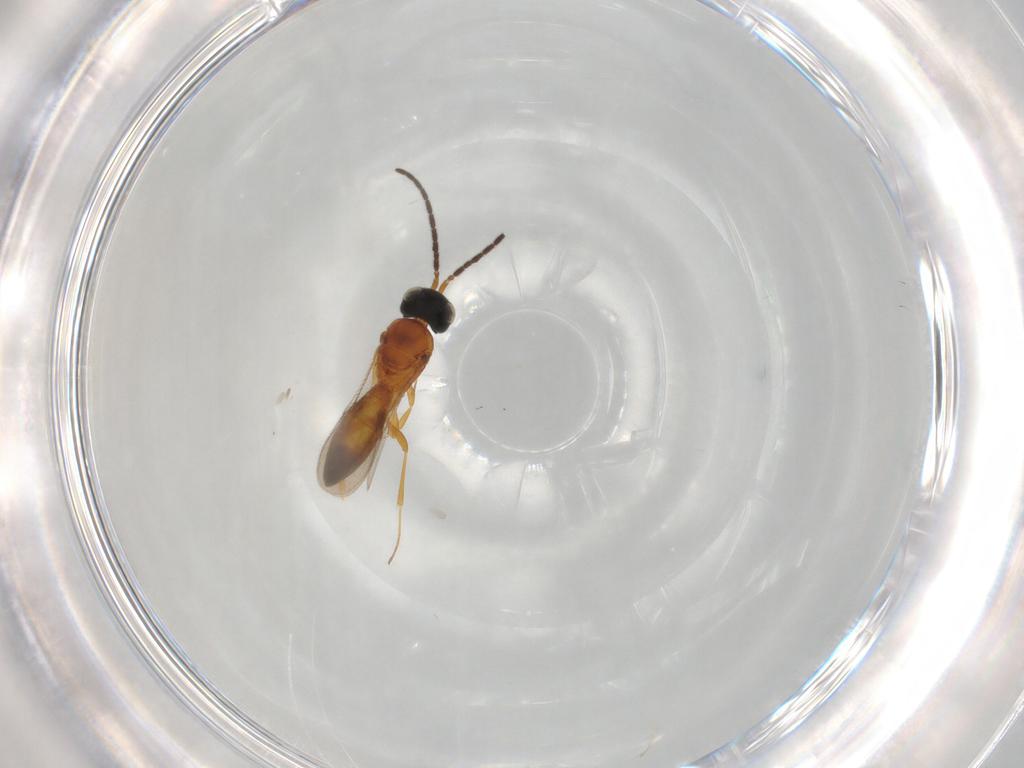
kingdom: Animalia
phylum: Arthropoda
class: Insecta
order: Hymenoptera
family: Scelionidae
